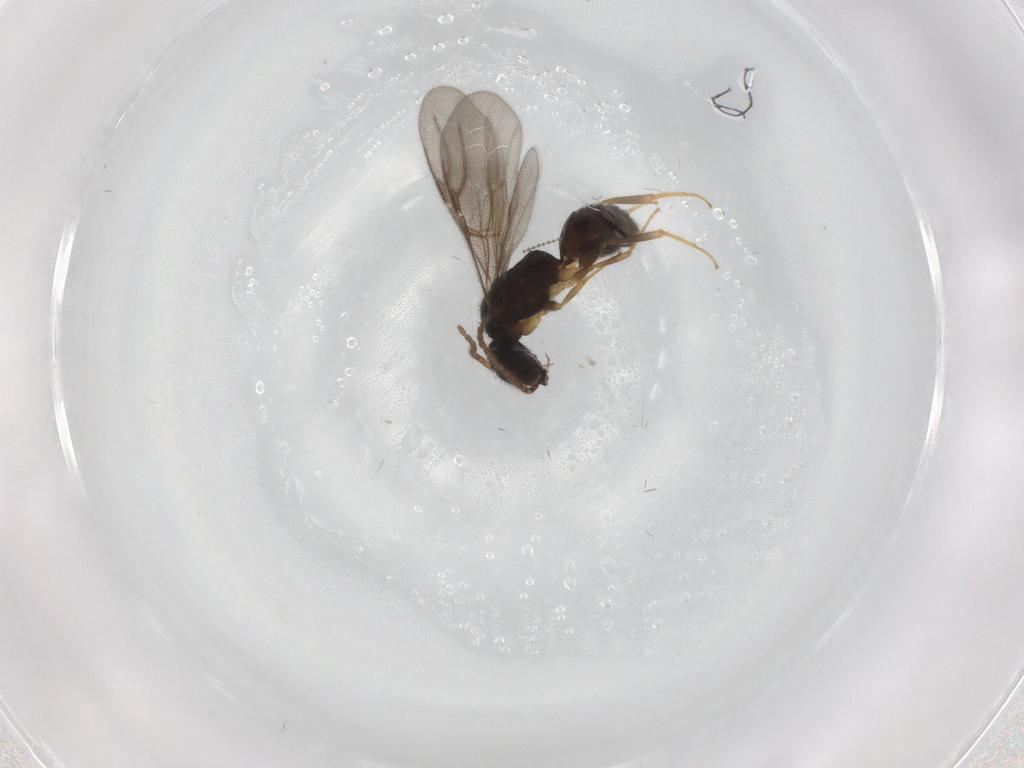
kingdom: Animalia
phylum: Arthropoda
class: Insecta
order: Hymenoptera
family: Bethylidae
